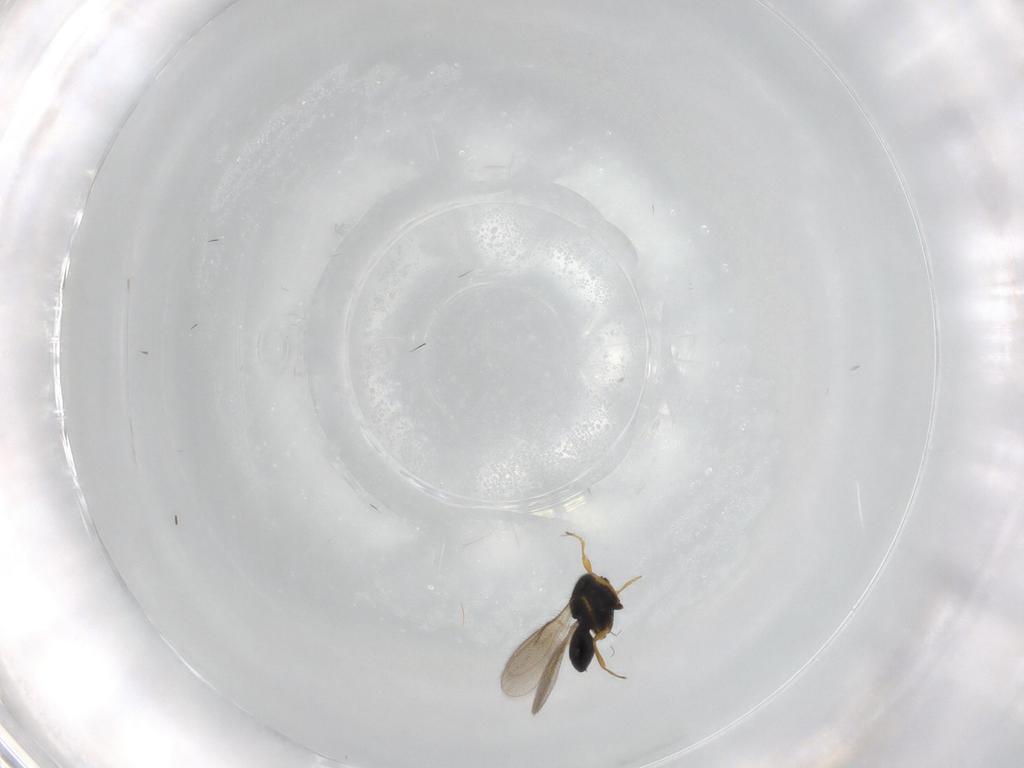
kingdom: Animalia
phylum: Arthropoda
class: Insecta
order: Hymenoptera
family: Scelionidae
